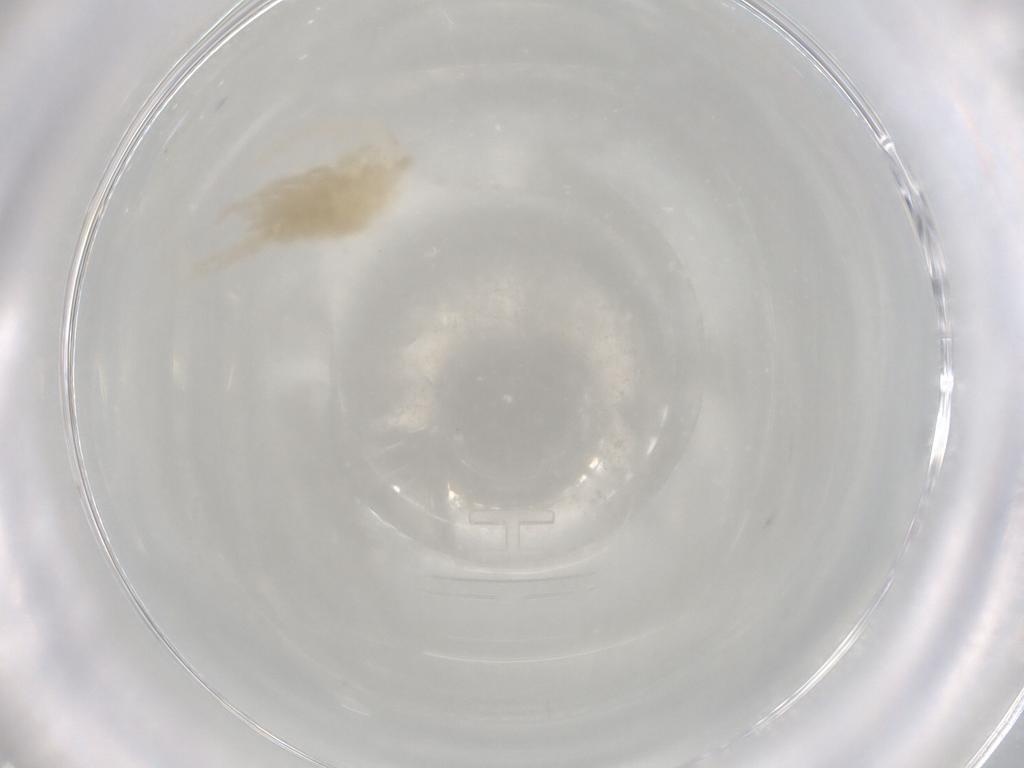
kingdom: Animalia
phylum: Arthropoda
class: Copepoda
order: Calanoida
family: Diaptomidae
